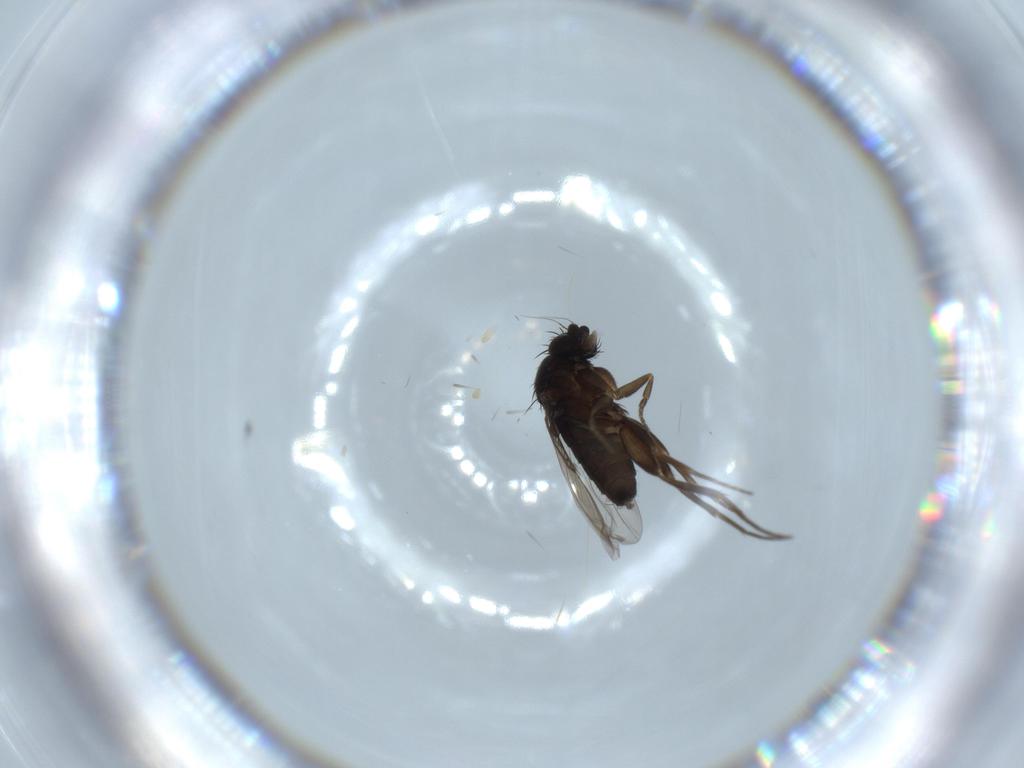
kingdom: Animalia
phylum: Arthropoda
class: Insecta
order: Diptera
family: Phoridae
